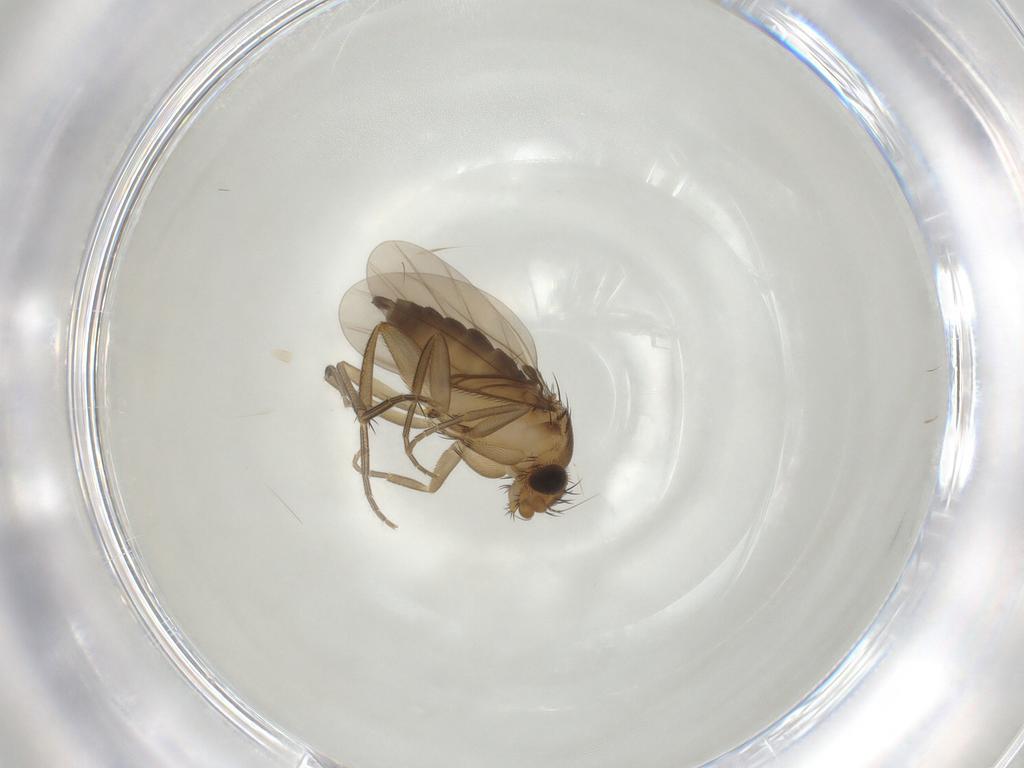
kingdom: Animalia
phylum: Arthropoda
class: Insecta
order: Diptera
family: Phoridae
